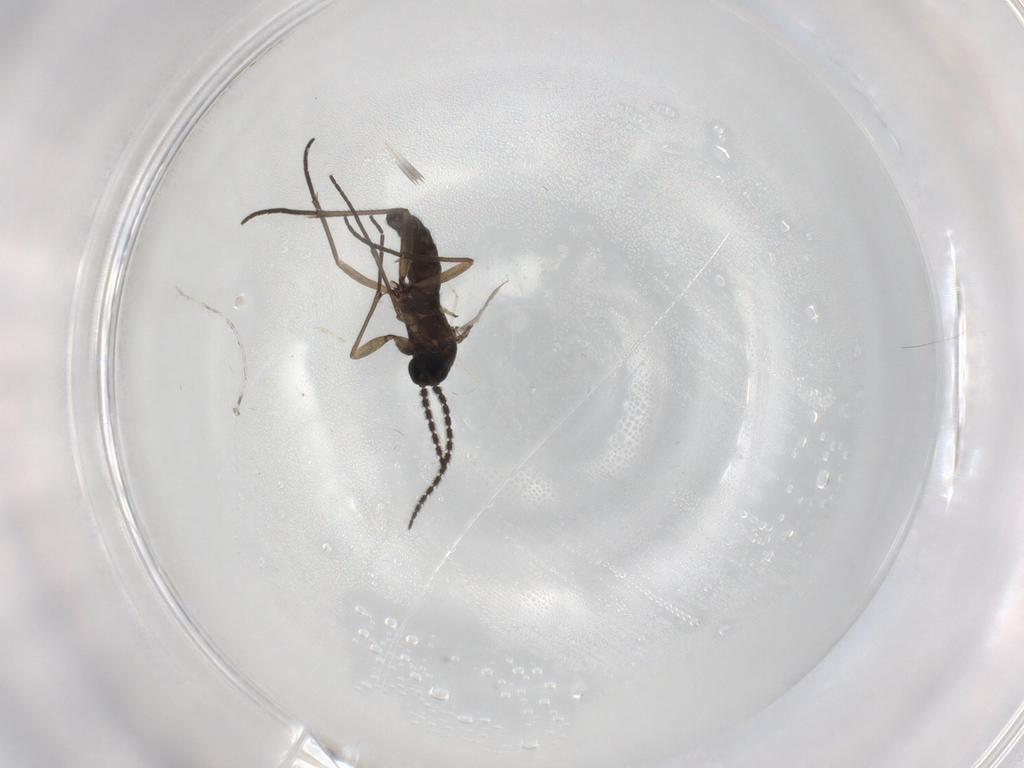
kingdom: Animalia
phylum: Arthropoda
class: Insecta
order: Diptera
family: Sciaridae
